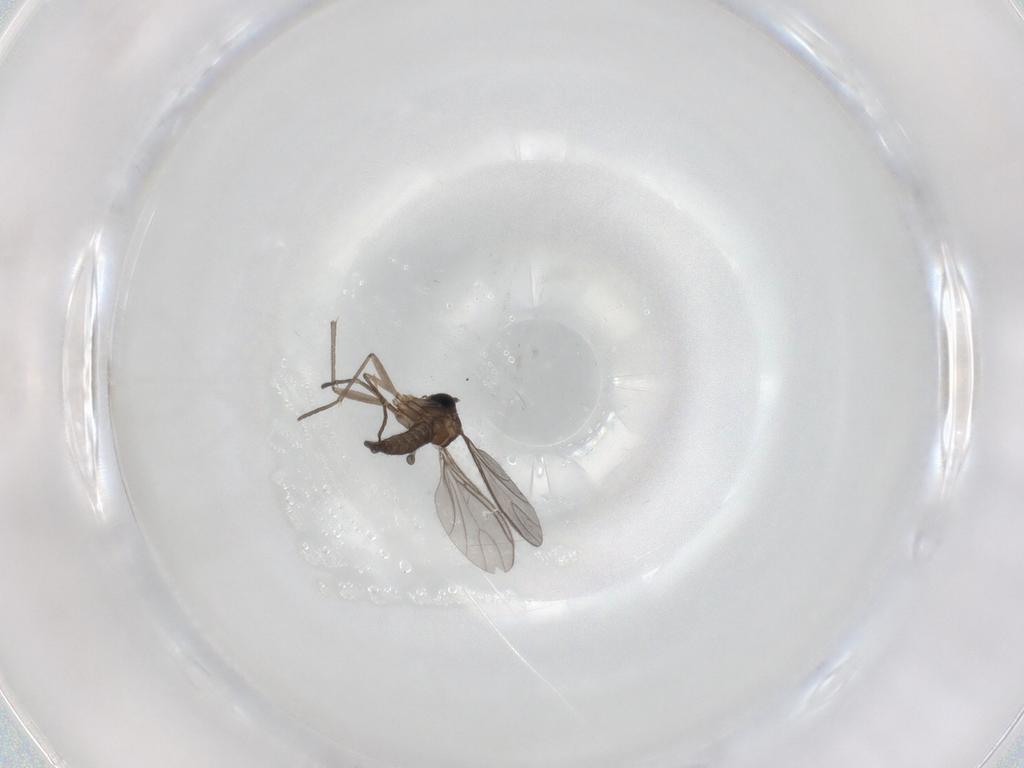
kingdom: Animalia
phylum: Arthropoda
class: Insecta
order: Diptera
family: Sciaridae
